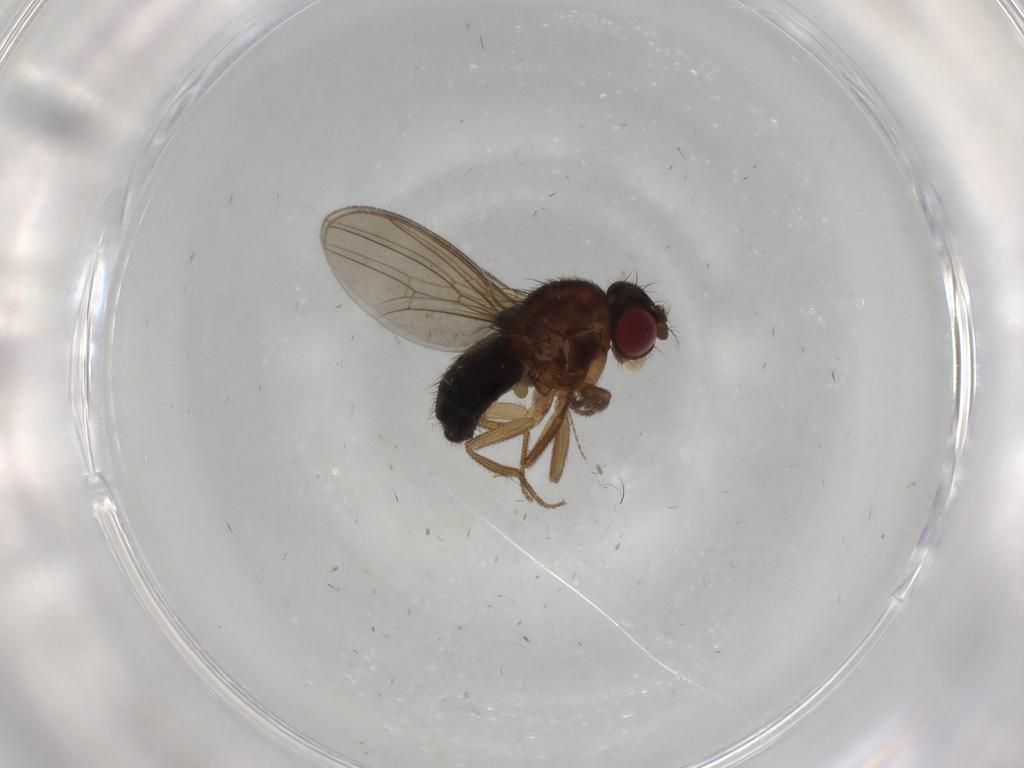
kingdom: Animalia
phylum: Arthropoda
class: Insecta
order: Diptera
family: Drosophilidae
